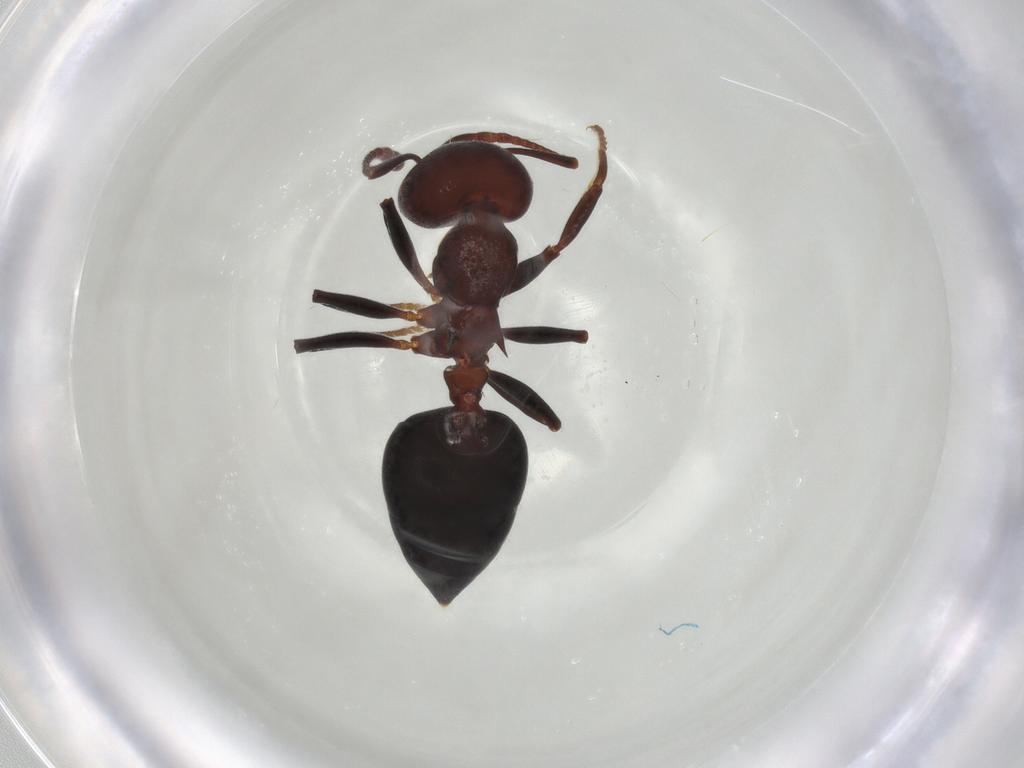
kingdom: Animalia
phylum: Arthropoda
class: Insecta
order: Hymenoptera
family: Formicidae
